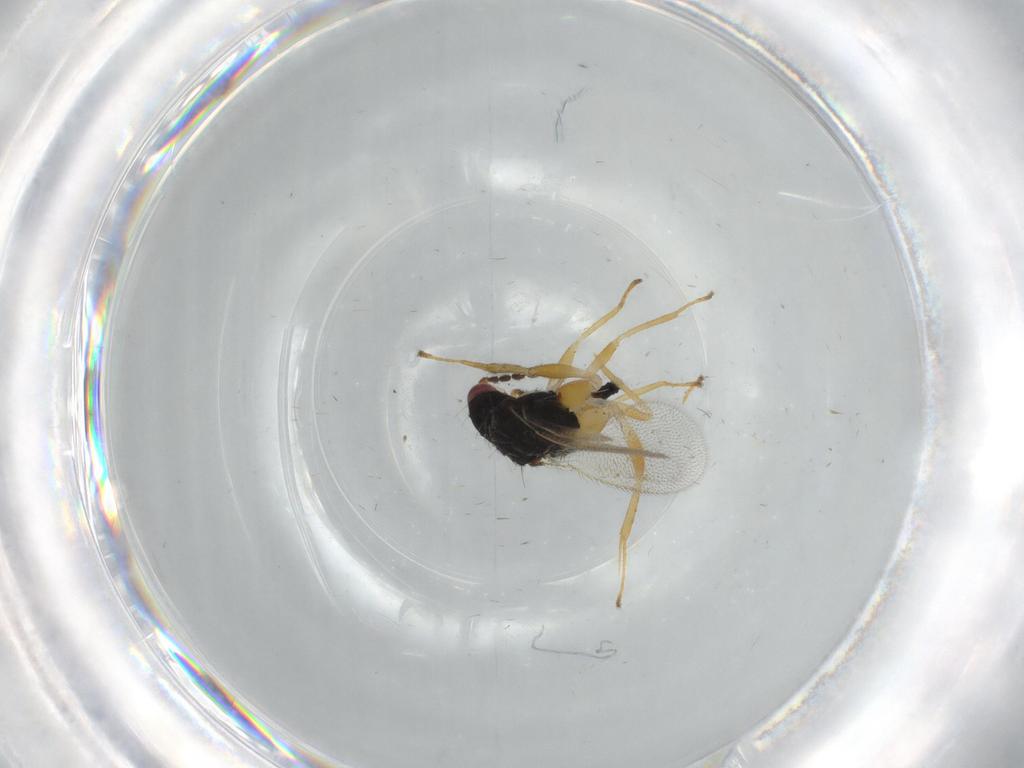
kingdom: Animalia
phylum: Arthropoda
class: Insecta
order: Hymenoptera
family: Eulophidae
